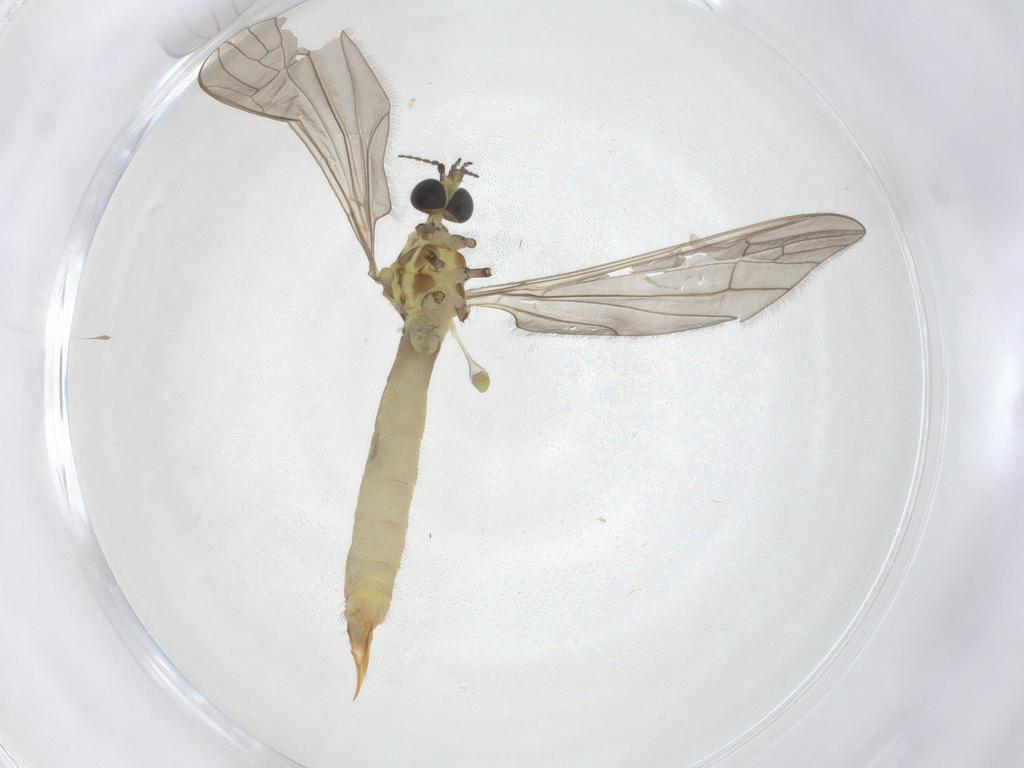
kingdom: Animalia
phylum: Arthropoda
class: Insecta
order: Diptera
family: Limoniidae
